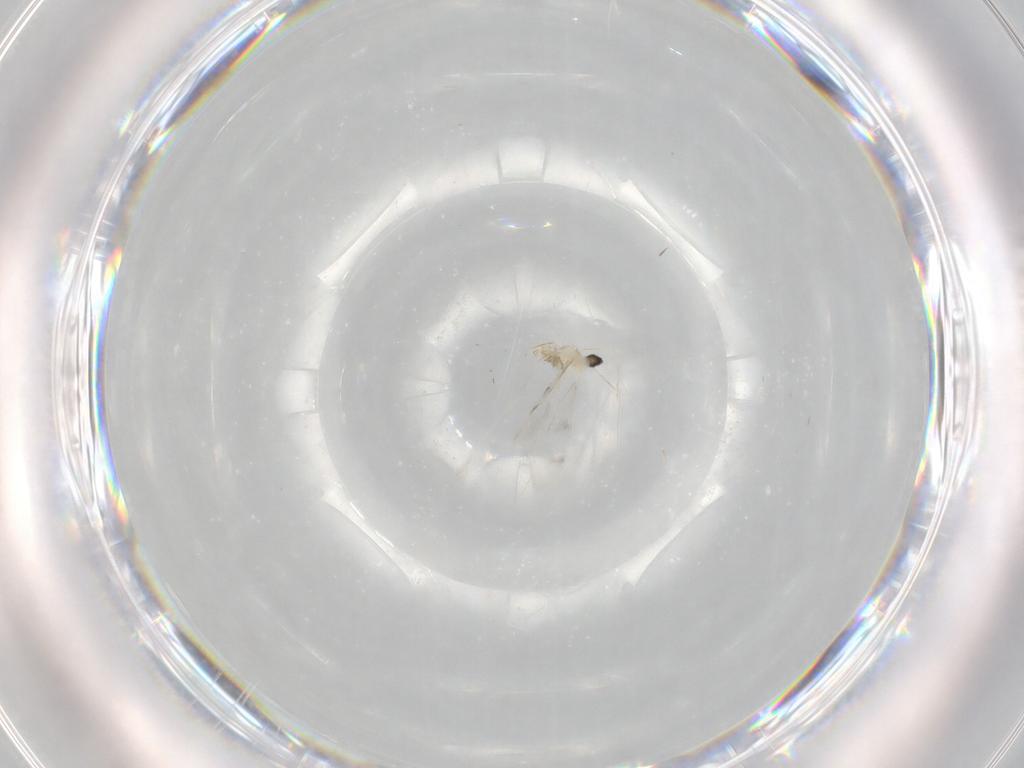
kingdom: Animalia
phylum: Arthropoda
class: Insecta
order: Diptera
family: Cecidomyiidae
